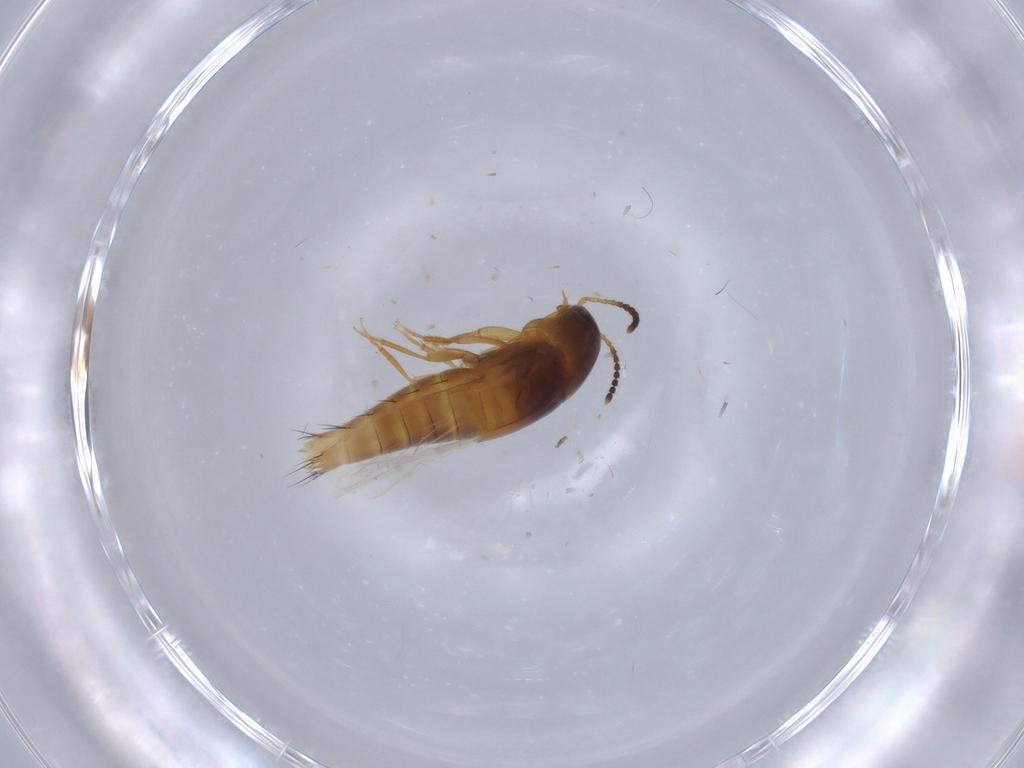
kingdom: Animalia
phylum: Arthropoda
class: Insecta
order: Coleoptera
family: Staphylinidae
